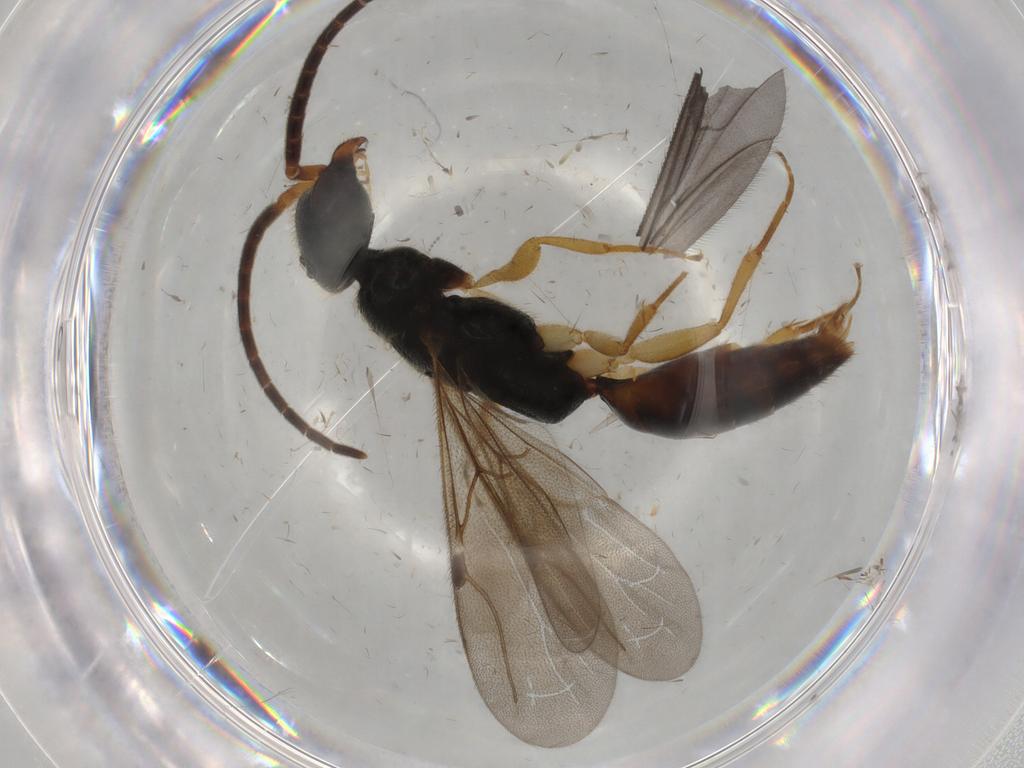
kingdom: Animalia
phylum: Arthropoda
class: Insecta
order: Hymenoptera
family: Bethylidae
